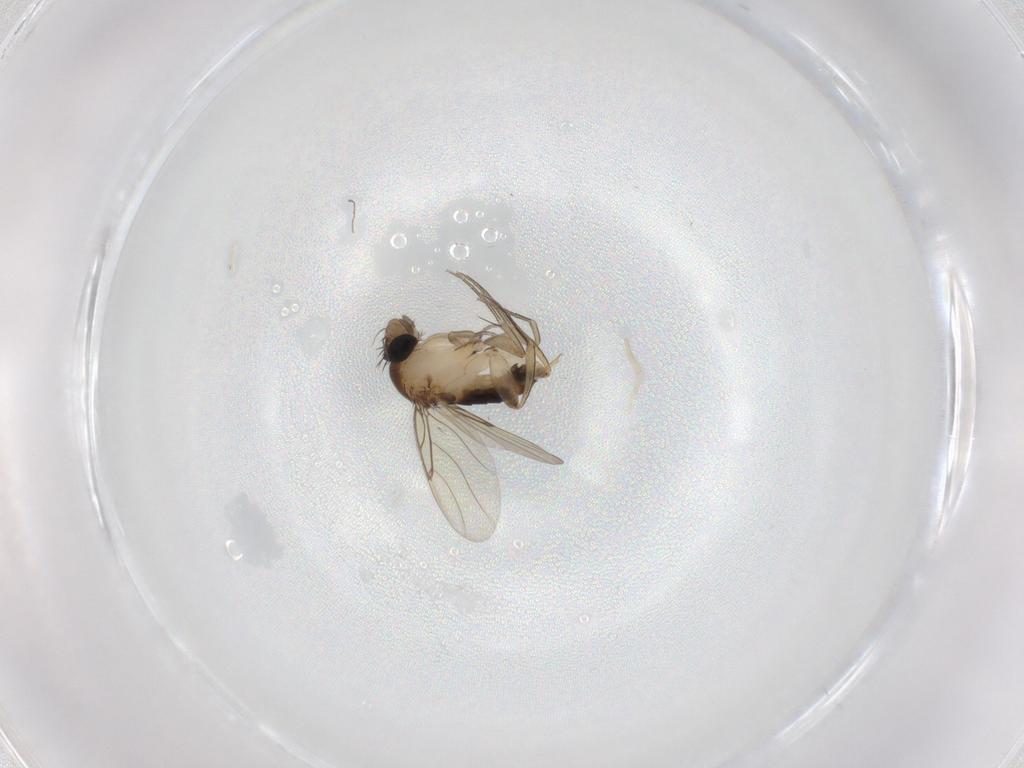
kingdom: Animalia
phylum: Arthropoda
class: Insecta
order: Diptera
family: Phoridae
